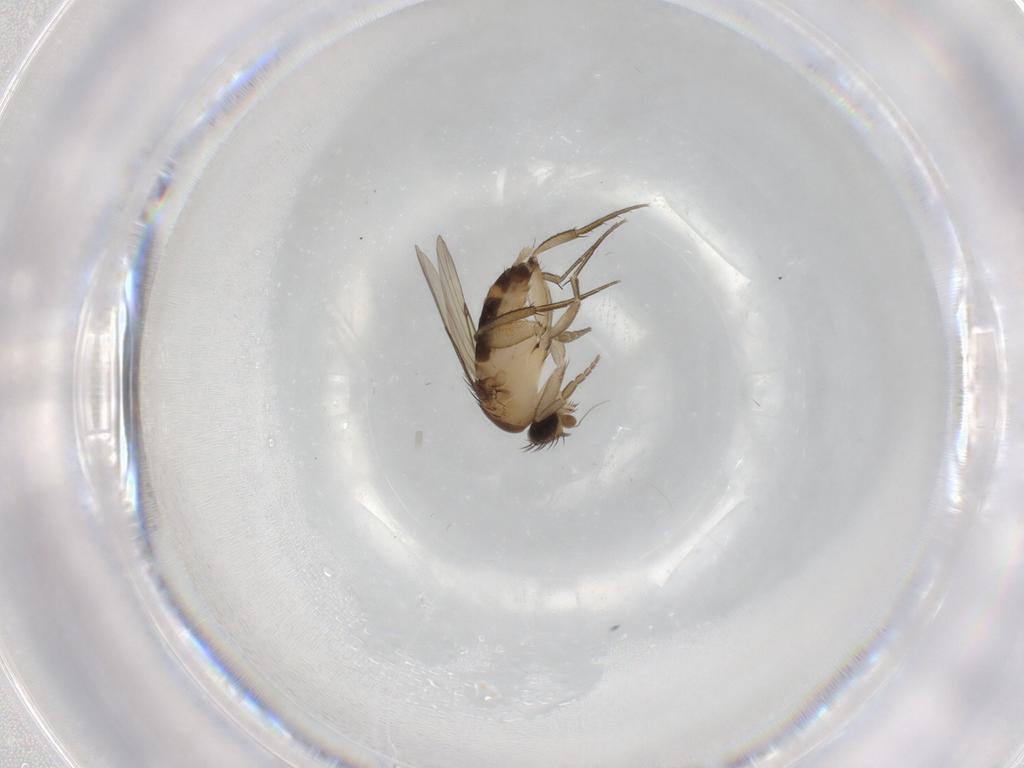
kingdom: Animalia
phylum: Arthropoda
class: Insecta
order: Diptera
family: Phoridae
